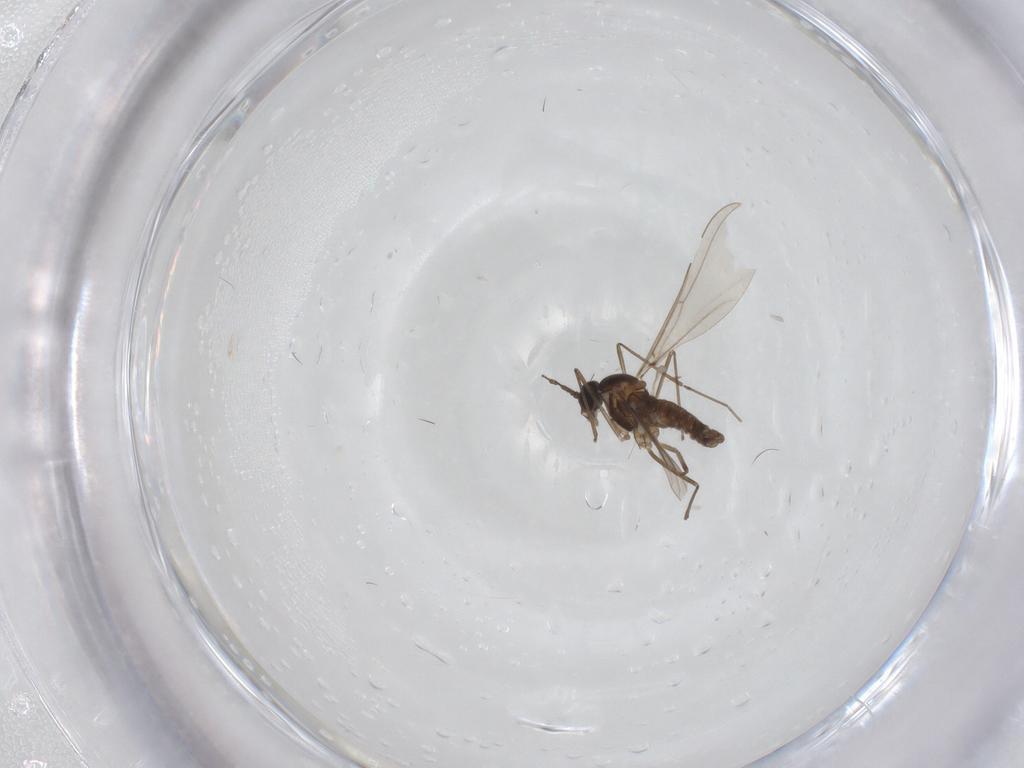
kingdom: Animalia
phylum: Arthropoda
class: Insecta
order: Diptera
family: Cecidomyiidae
